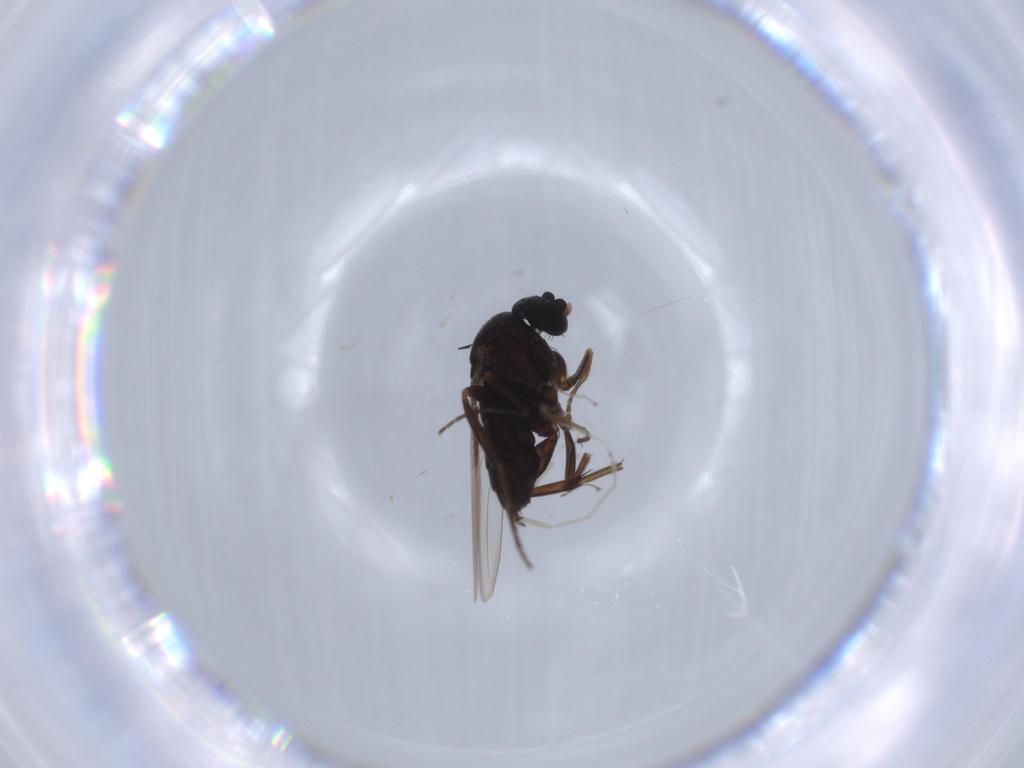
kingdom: Animalia
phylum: Arthropoda
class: Insecta
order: Diptera
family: Phoridae
